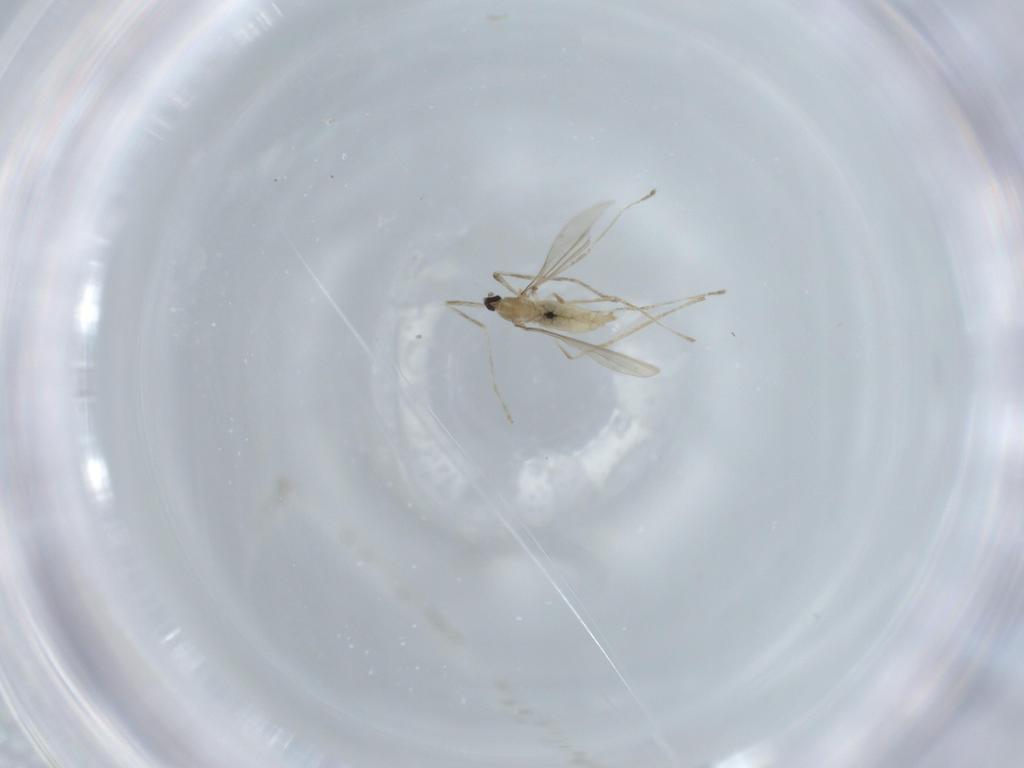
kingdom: Animalia
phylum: Arthropoda
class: Insecta
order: Diptera
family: Cecidomyiidae
